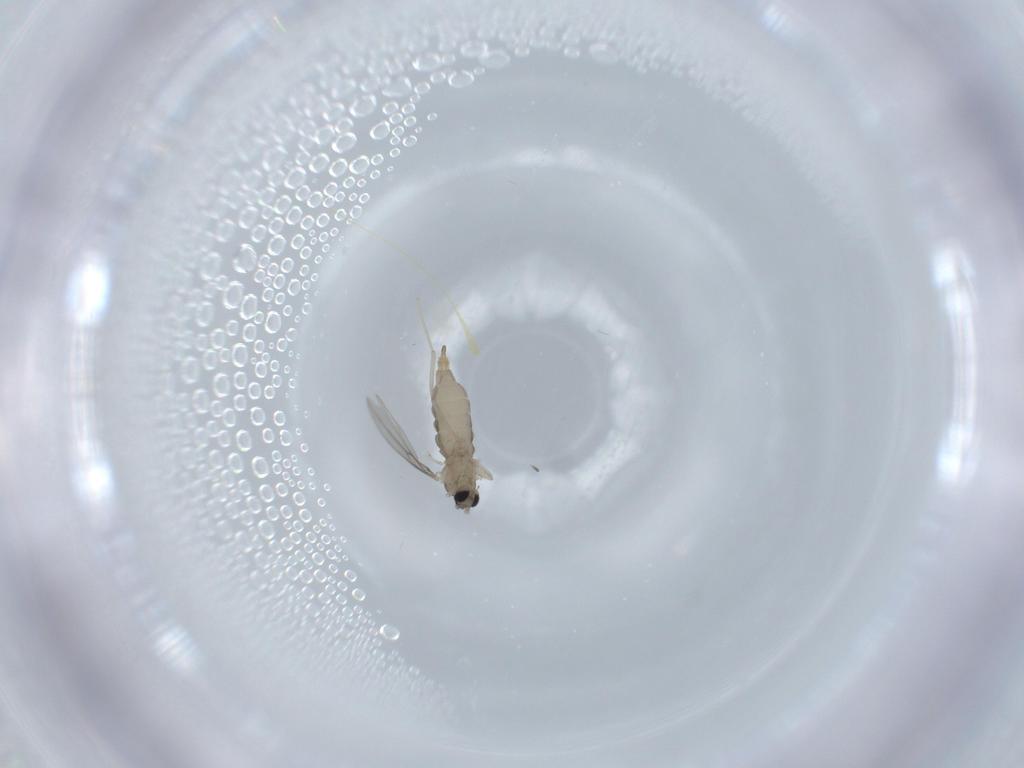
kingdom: Animalia
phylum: Arthropoda
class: Insecta
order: Diptera
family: Cecidomyiidae
